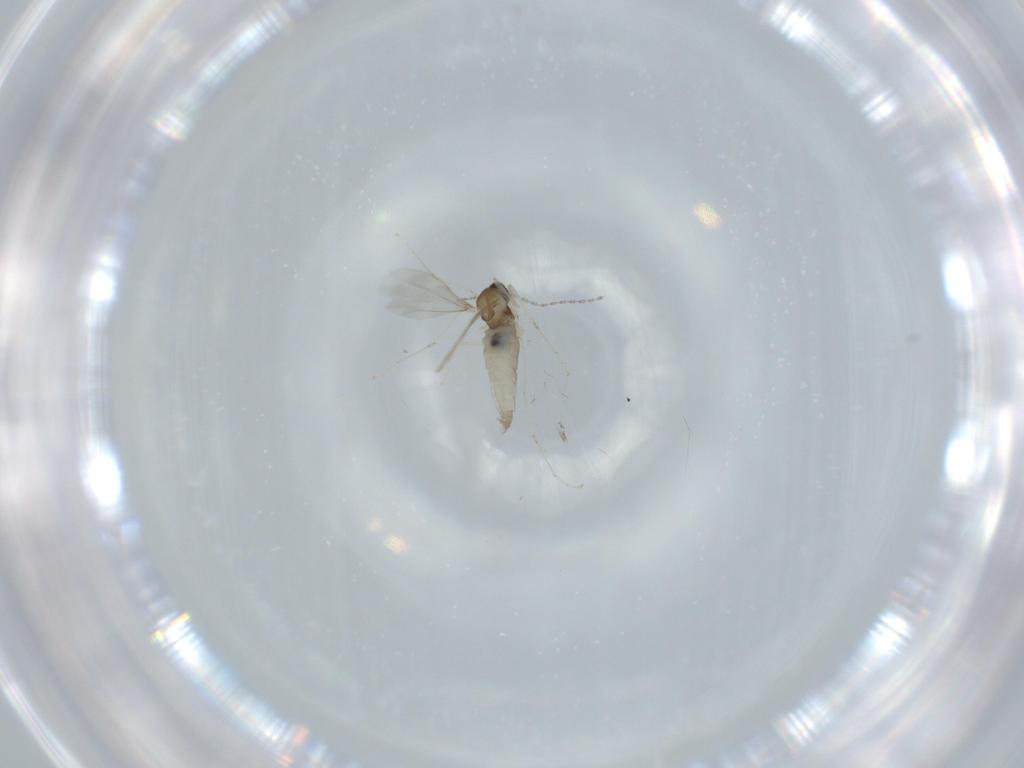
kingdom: Animalia
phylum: Arthropoda
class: Insecta
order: Diptera
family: Cecidomyiidae
